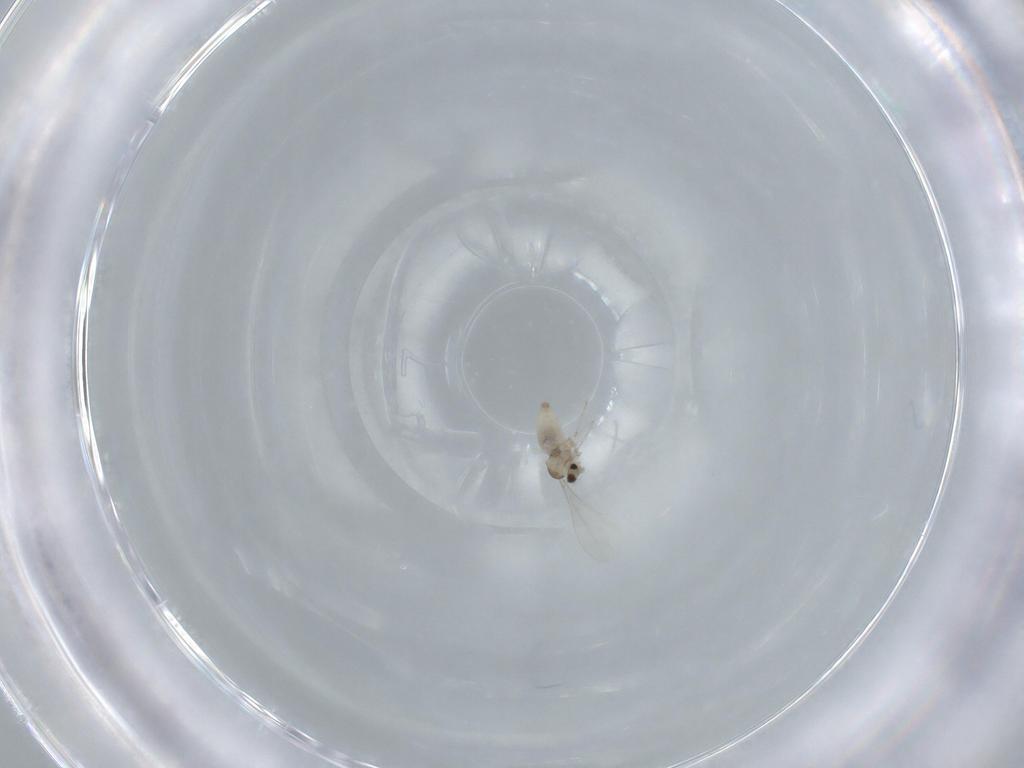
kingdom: Animalia
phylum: Arthropoda
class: Insecta
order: Diptera
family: Cecidomyiidae
